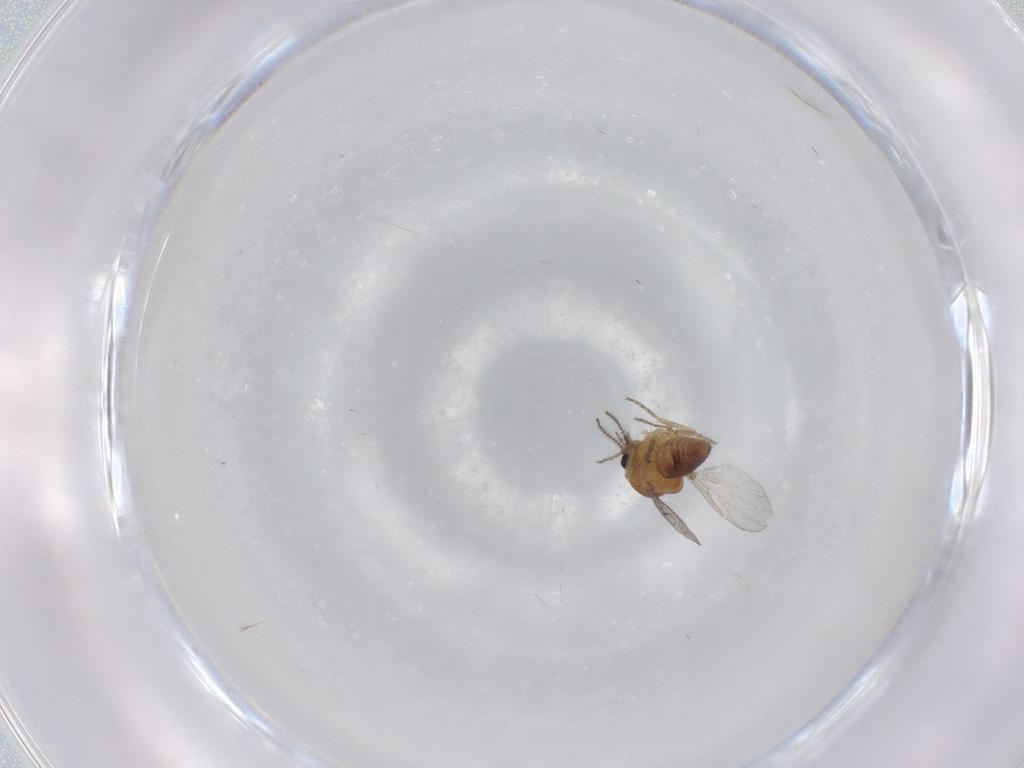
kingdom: Animalia
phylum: Arthropoda
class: Insecta
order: Diptera
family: Ceratopogonidae
